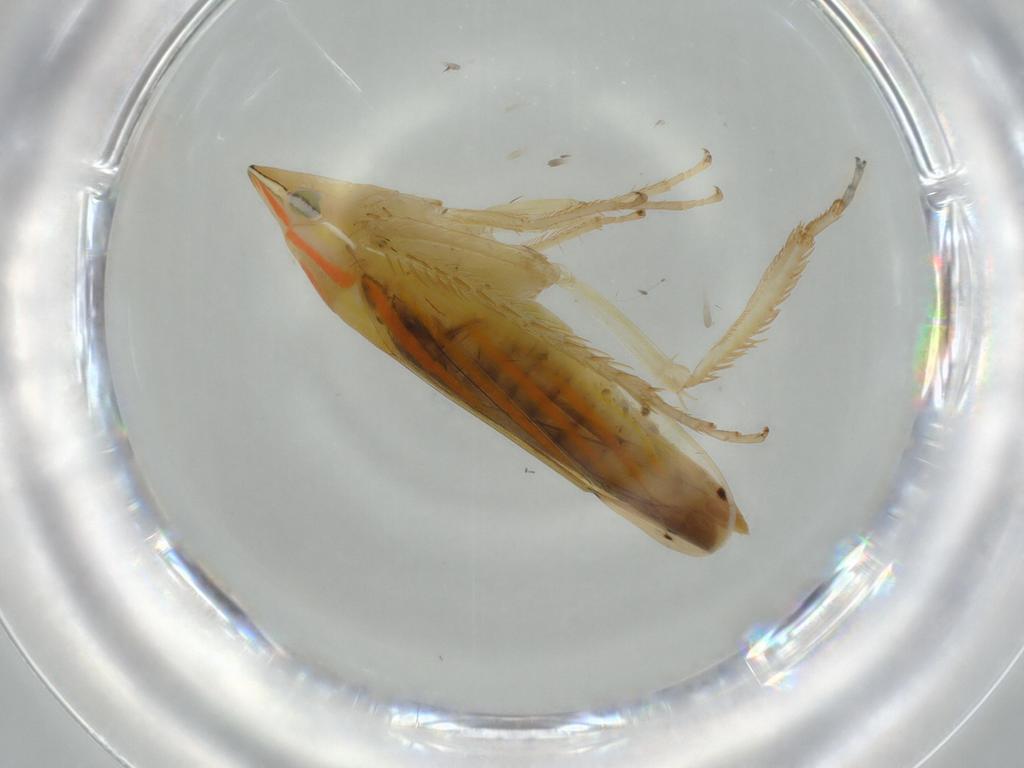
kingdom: Animalia
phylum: Arthropoda
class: Insecta
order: Hemiptera
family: Cicadellidae
